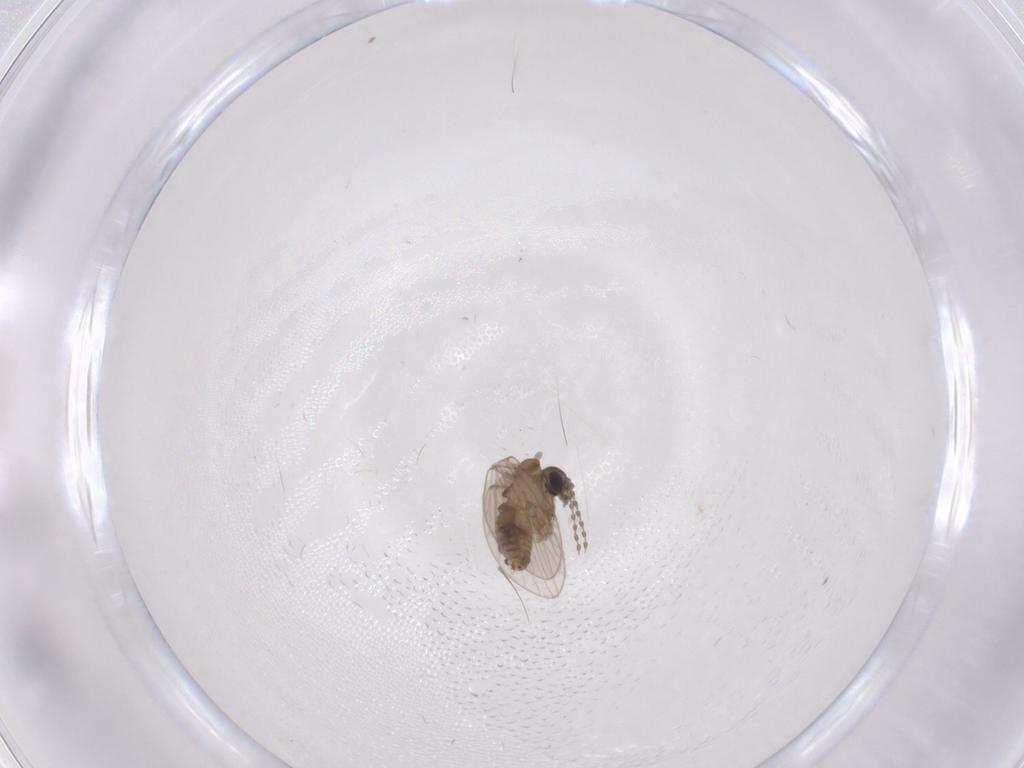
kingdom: Animalia
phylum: Arthropoda
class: Insecta
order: Diptera
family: Psychodidae
